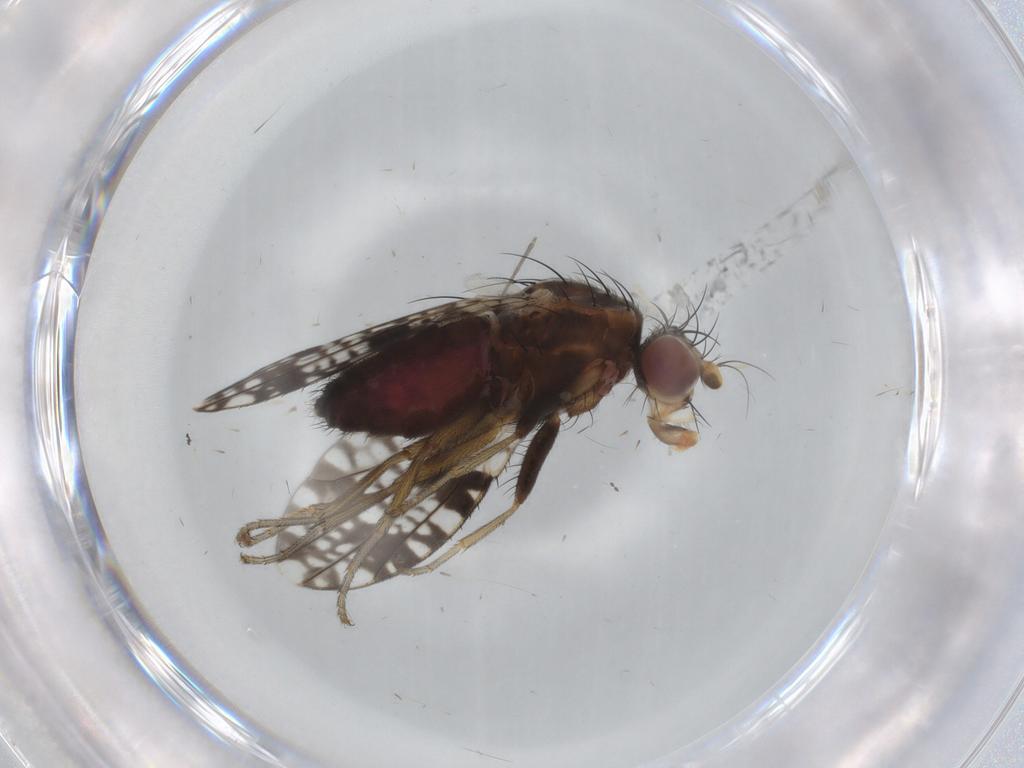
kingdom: Animalia
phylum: Arthropoda
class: Insecta
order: Diptera
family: Tephritidae
